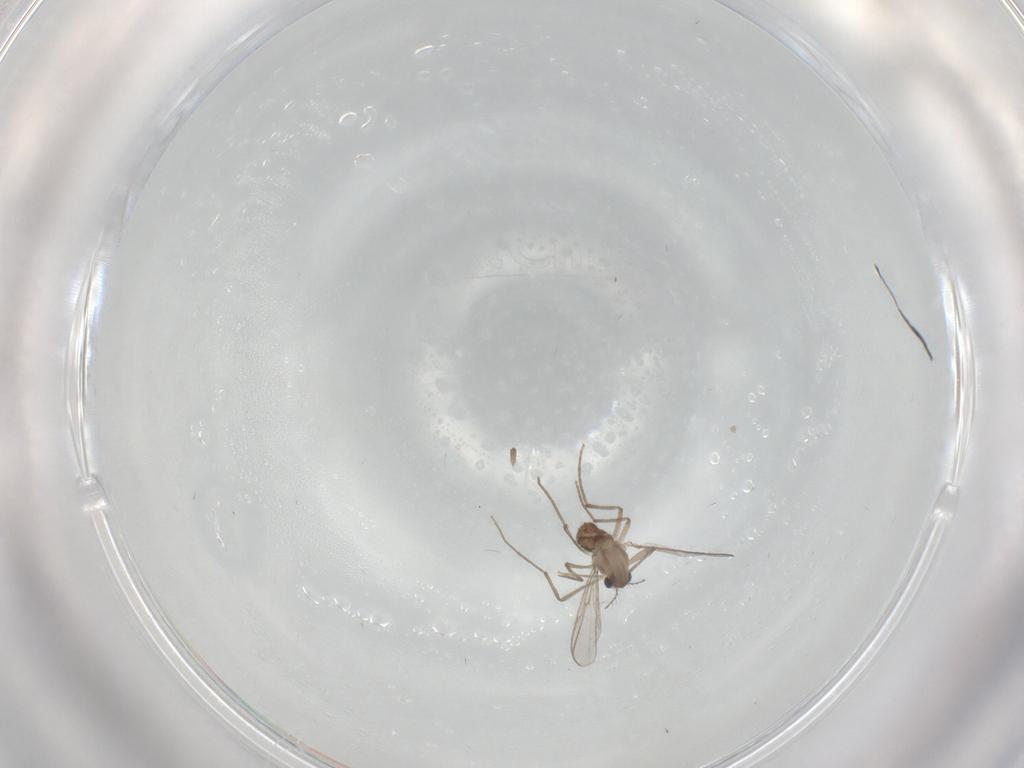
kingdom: Animalia
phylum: Arthropoda
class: Insecta
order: Diptera
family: Chironomidae
